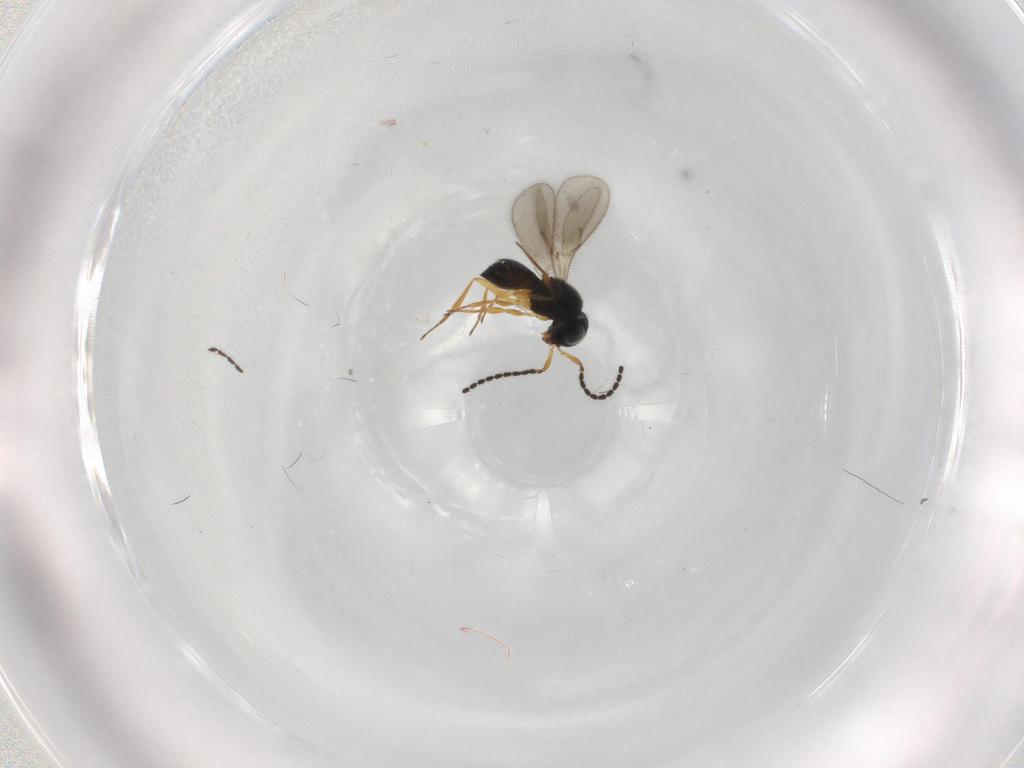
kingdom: Animalia
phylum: Arthropoda
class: Insecta
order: Hymenoptera
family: Scelionidae
